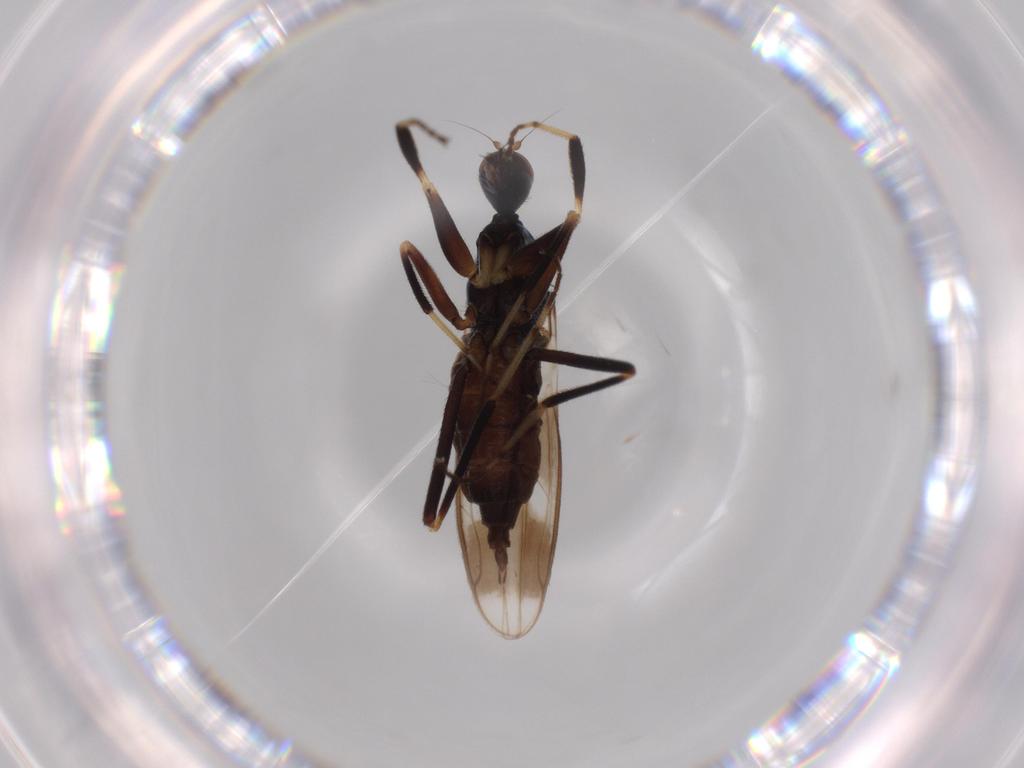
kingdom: Animalia
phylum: Arthropoda
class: Insecta
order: Diptera
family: Hybotidae
